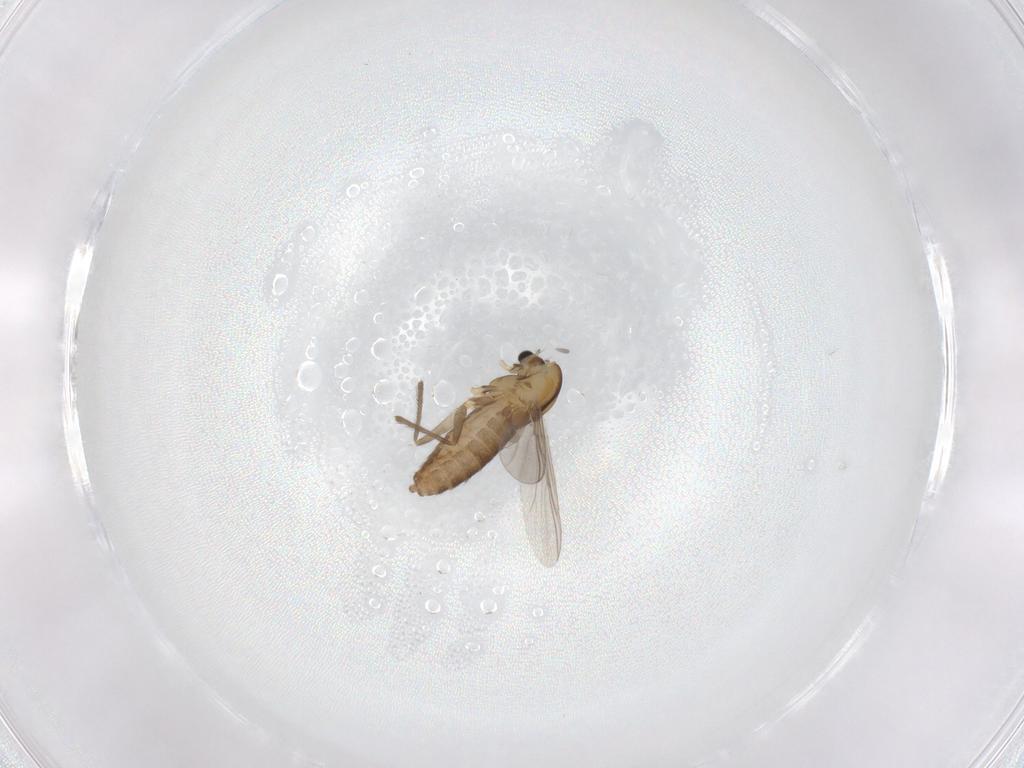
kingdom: Animalia
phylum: Arthropoda
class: Insecta
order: Diptera
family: Chironomidae
